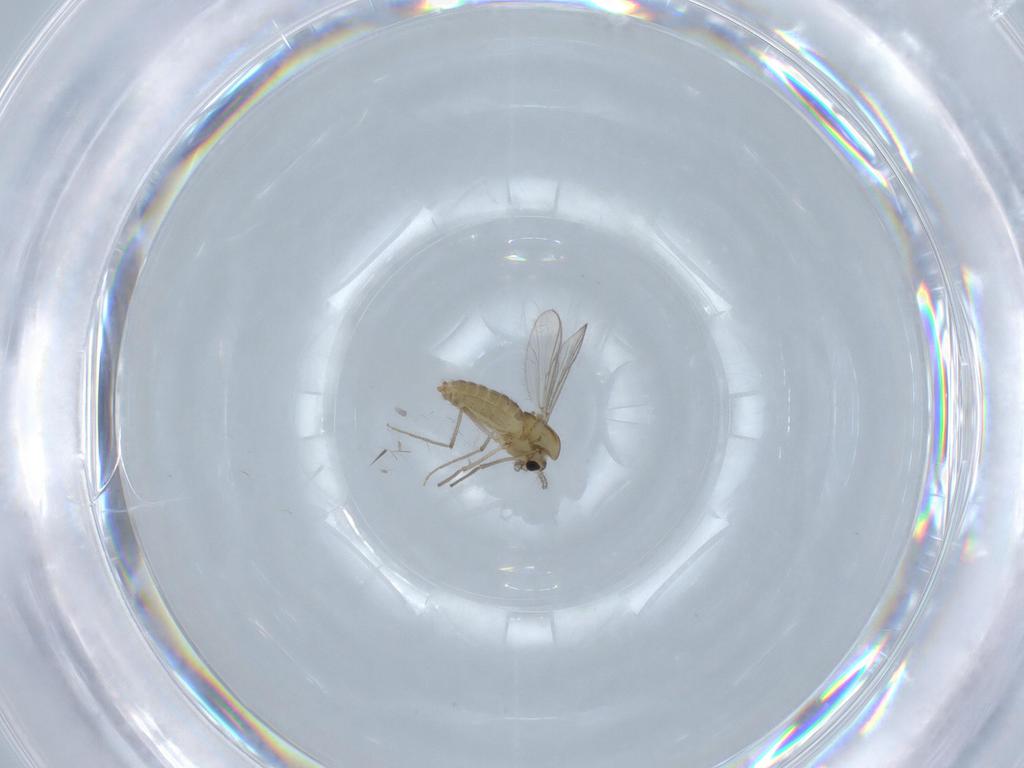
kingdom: Animalia
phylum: Arthropoda
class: Insecta
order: Diptera
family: Chironomidae
